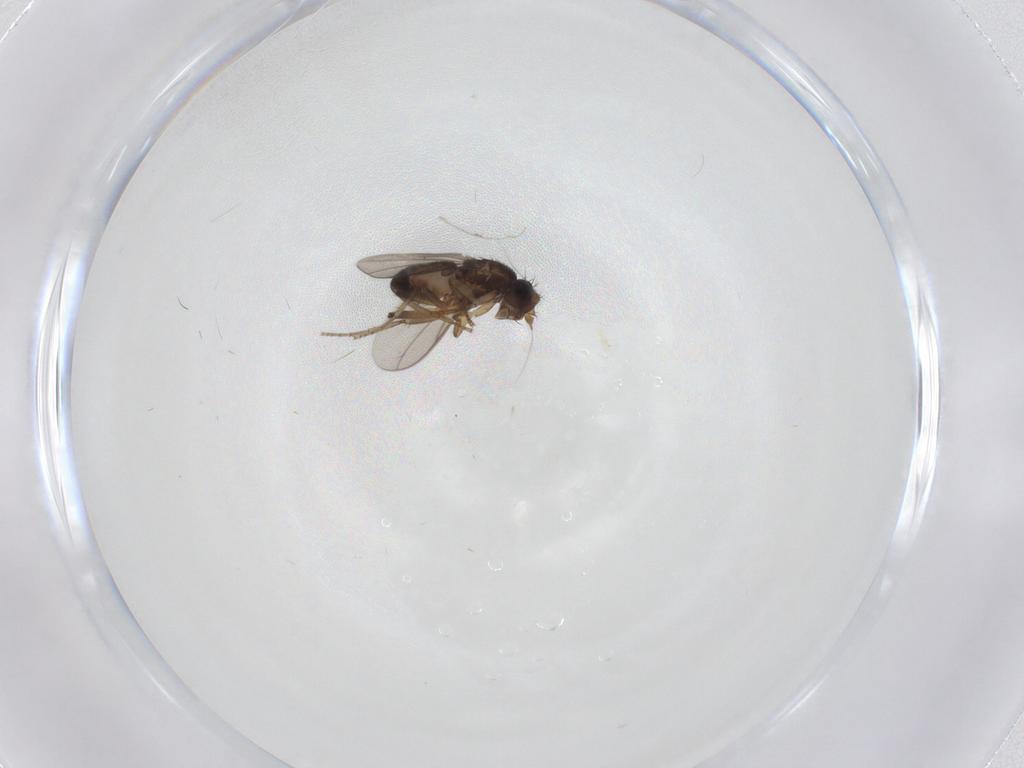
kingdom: Animalia
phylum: Arthropoda
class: Insecta
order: Diptera
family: Sphaeroceridae
